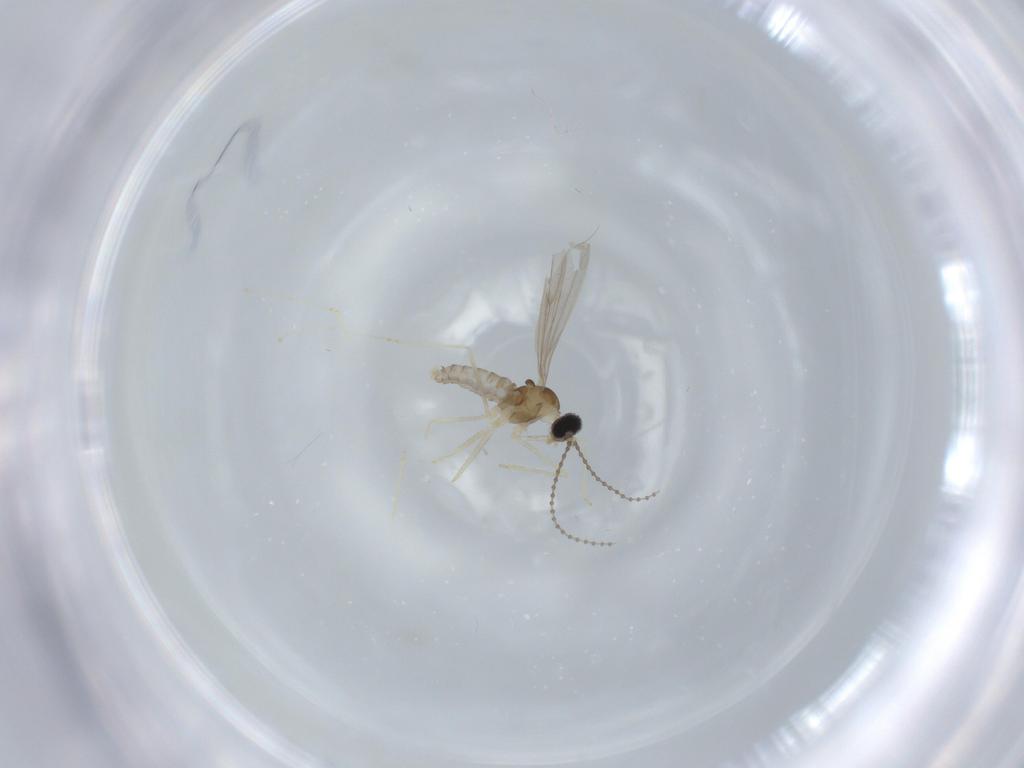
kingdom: Animalia
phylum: Arthropoda
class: Insecta
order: Diptera
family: Cecidomyiidae
